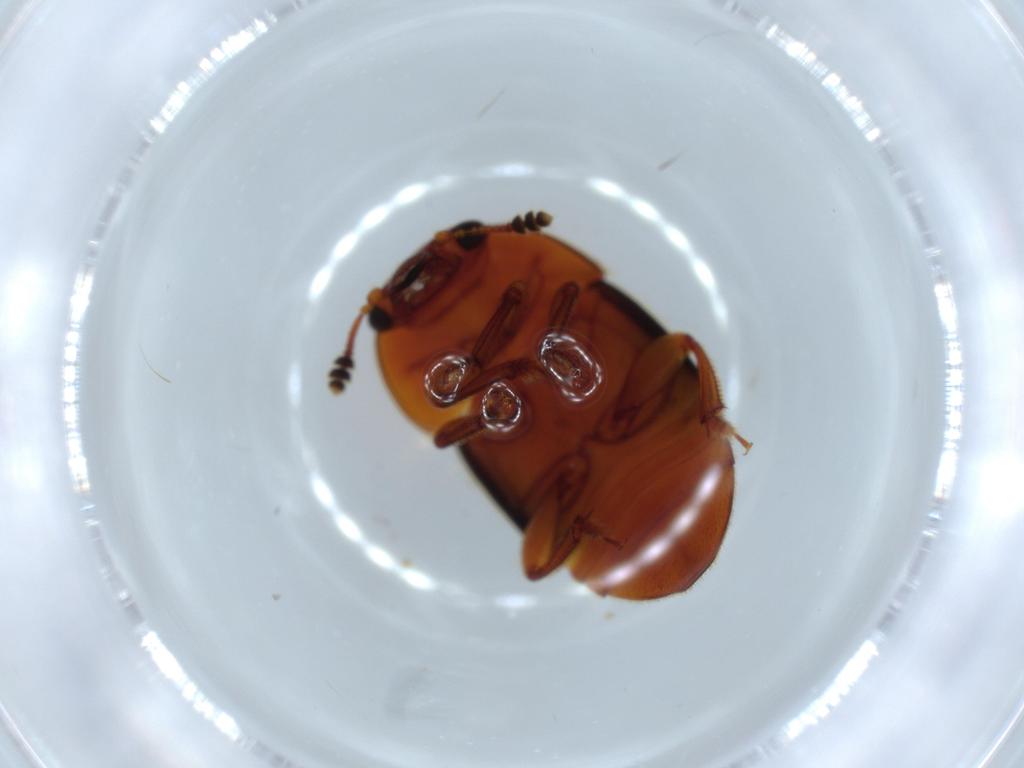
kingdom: Animalia
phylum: Arthropoda
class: Insecta
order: Coleoptera
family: Nitidulidae
